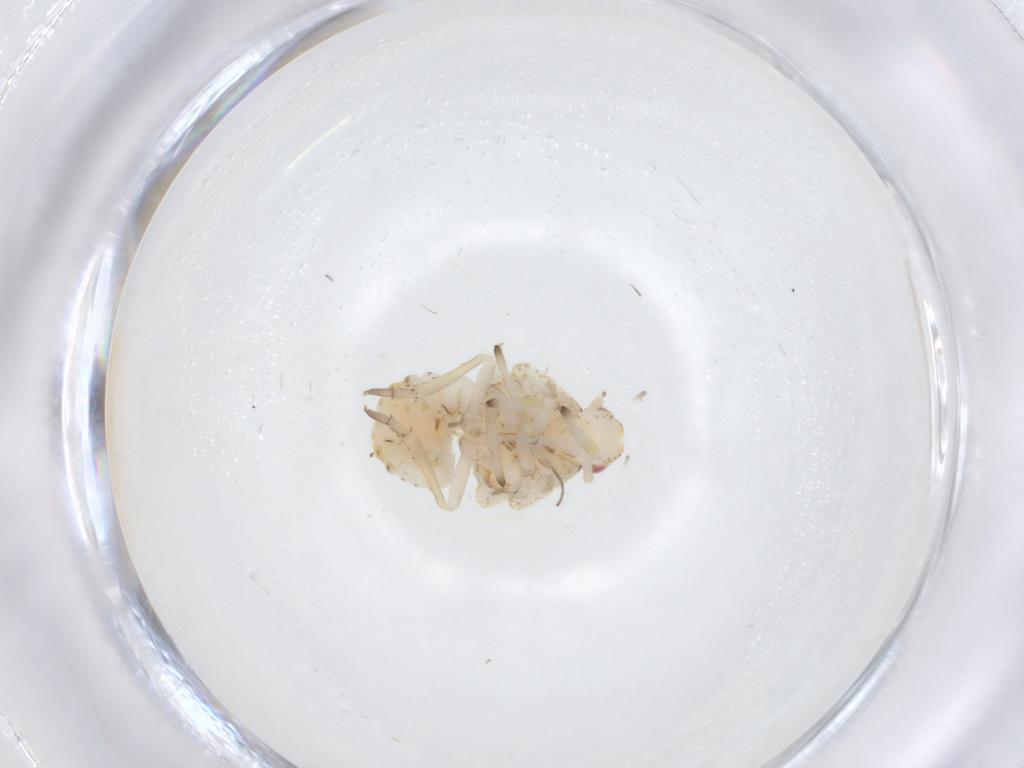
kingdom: Animalia
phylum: Arthropoda
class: Insecta
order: Hemiptera
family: Fulgoroidea_incertae_sedis
